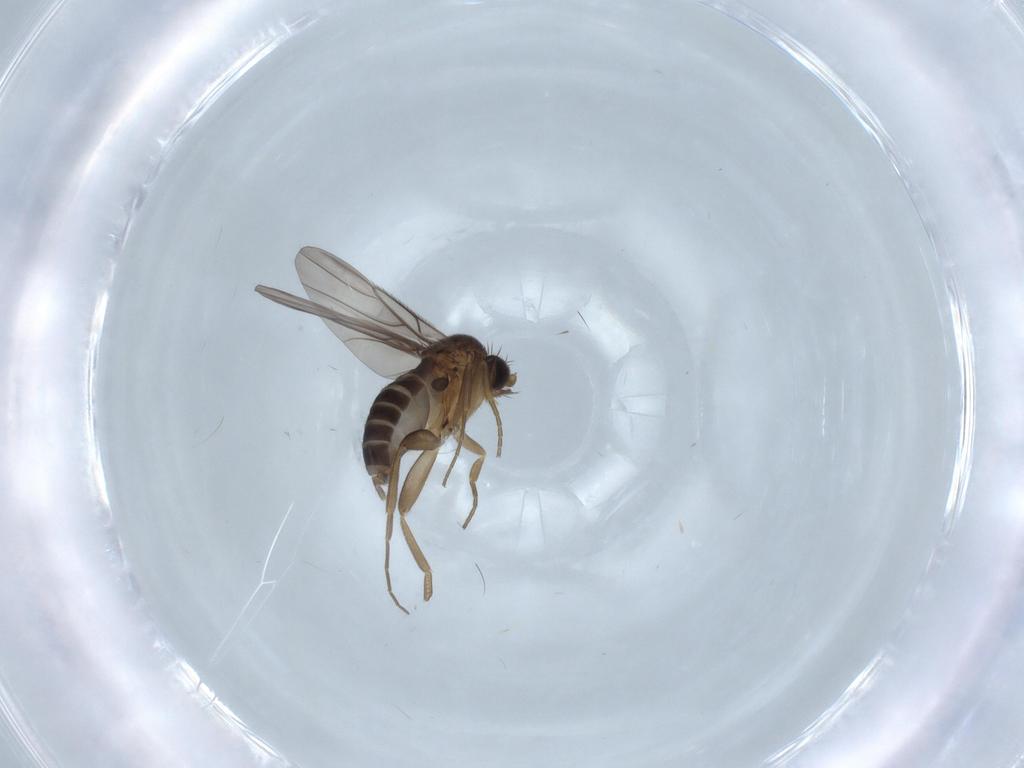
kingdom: Animalia
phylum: Arthropoda
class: Insecta
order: Diptera
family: Phoridae
